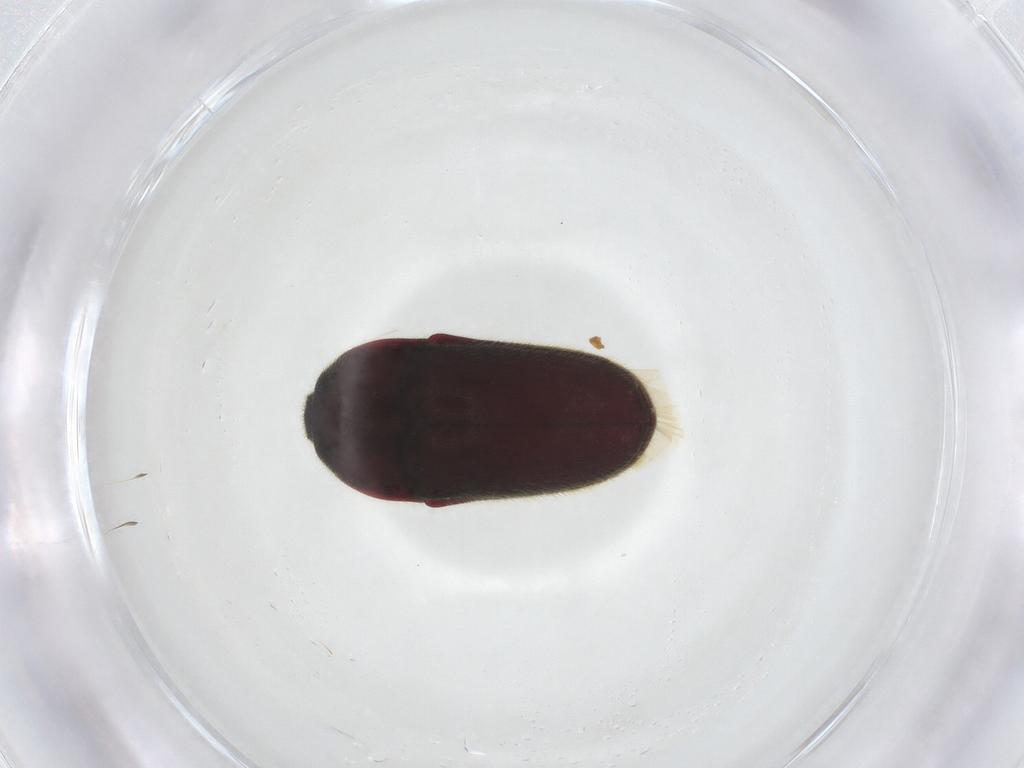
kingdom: Animalia
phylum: Arthropoda
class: Insecta
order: Coleoptera
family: Throscidae
